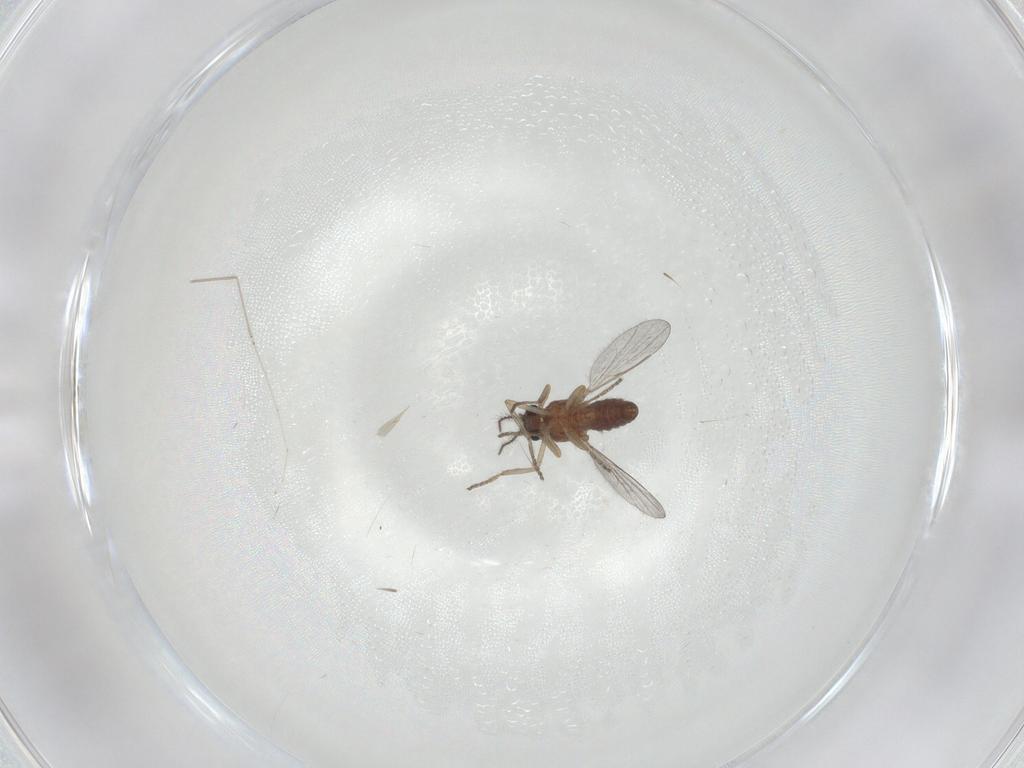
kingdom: Animalia
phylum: Arthropoda
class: Insecta
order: Diptera
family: Ceratopogonidae
